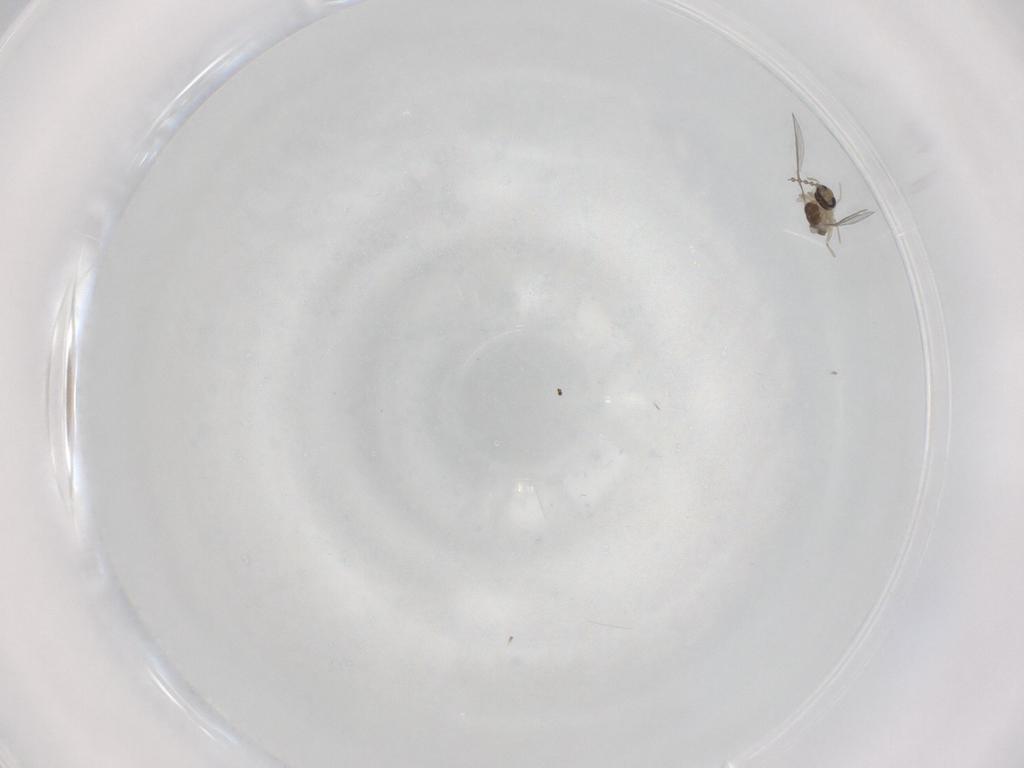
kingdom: Animalia
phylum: Arthropoda
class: Insecta
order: Diptera
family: Cecidomyiidae
